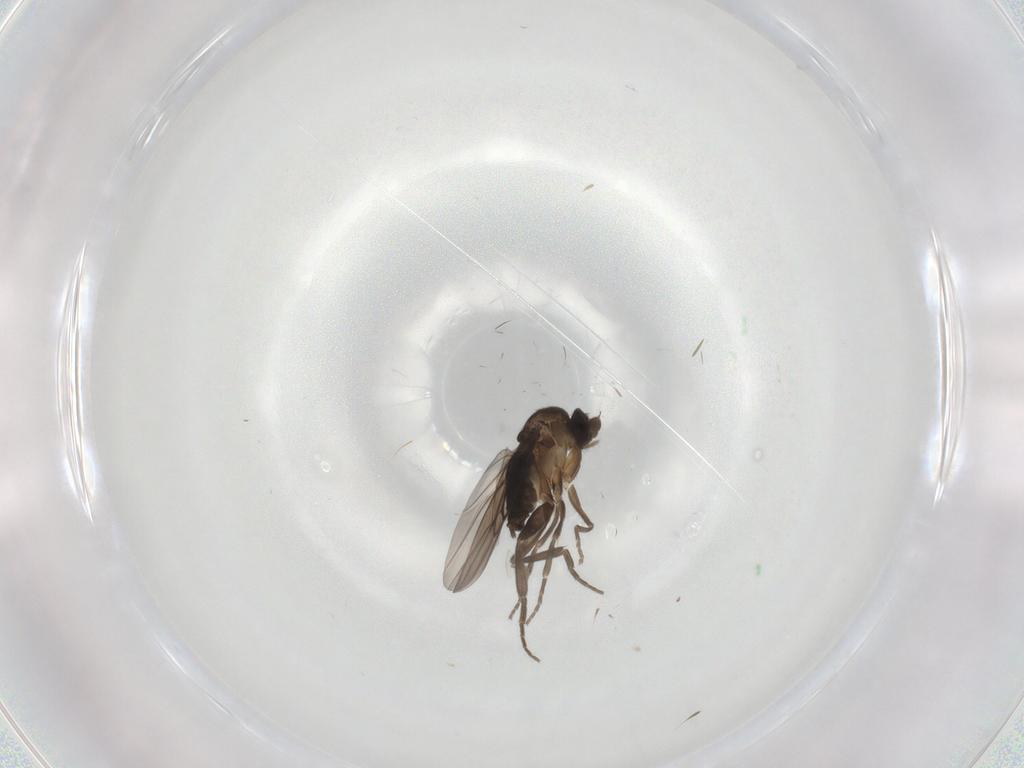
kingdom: Animalia
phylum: Arthropoda
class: Insecta
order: Diptera
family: Phoridae
